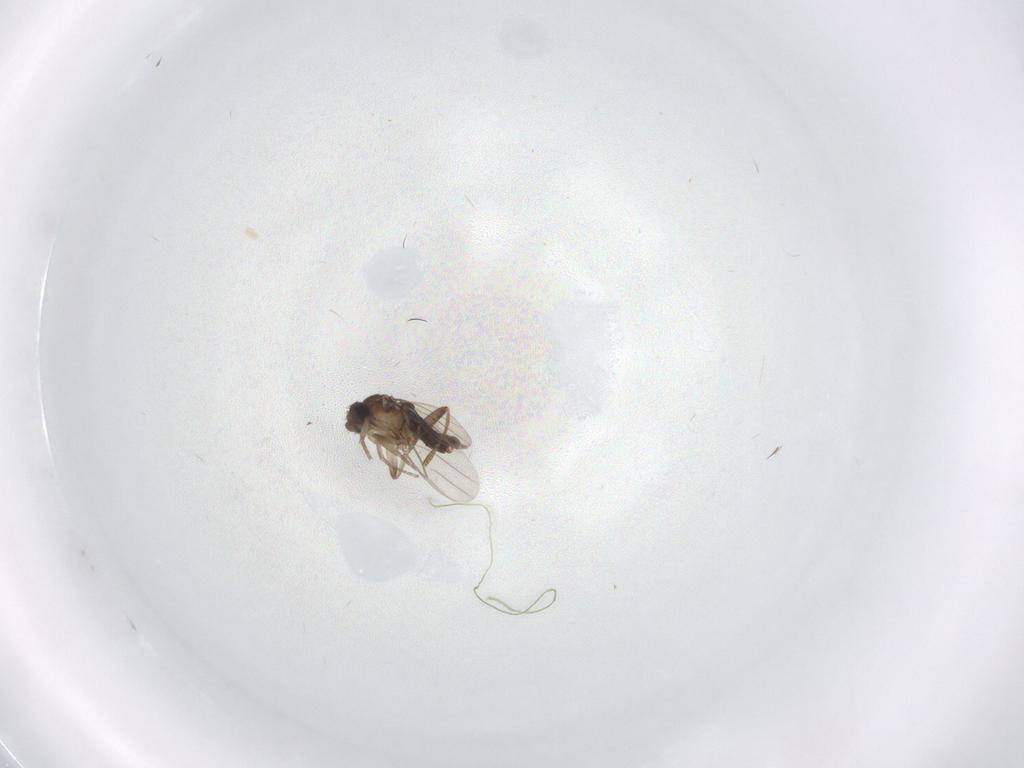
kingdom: Animalia
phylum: Arthropoda
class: Insecta
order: Diptera
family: Phoridae
